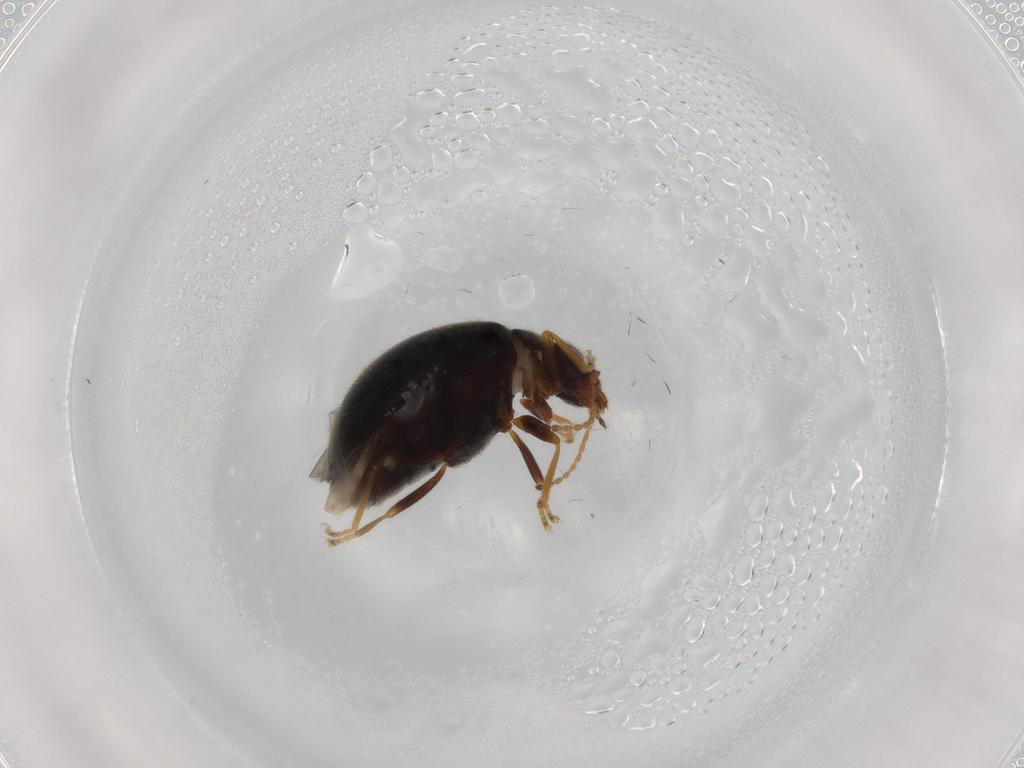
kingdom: Animalia
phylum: Arthropoda
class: Insecta
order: Coleoptera
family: Scirtidae
